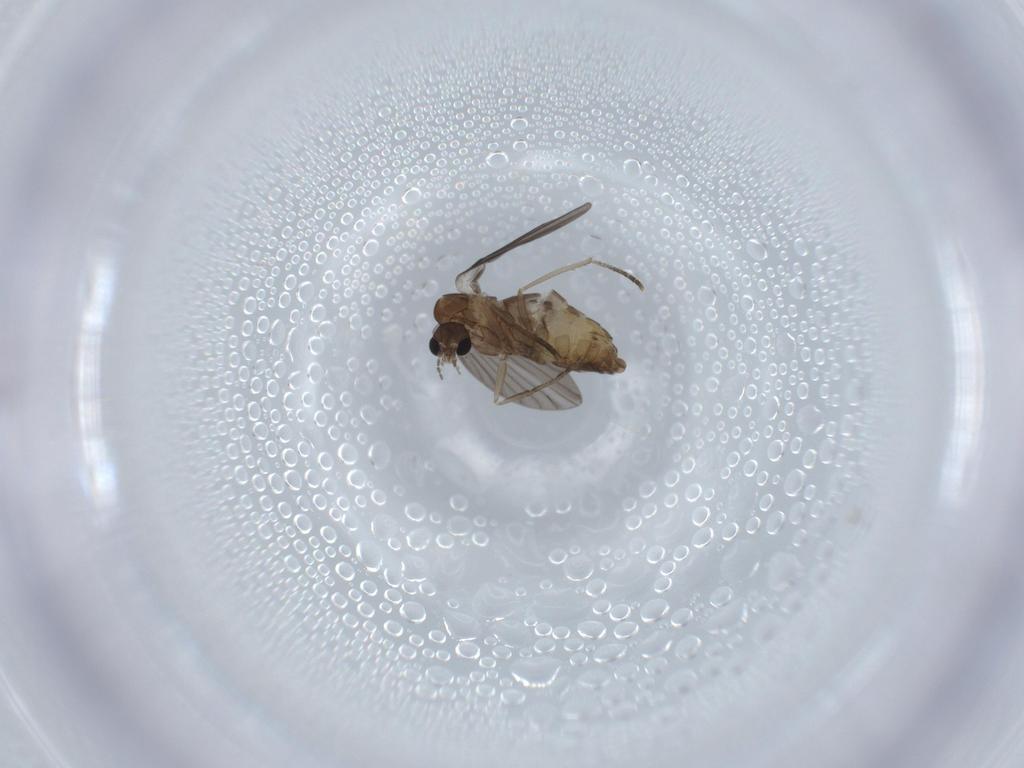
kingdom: Animalia
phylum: Arthropoda
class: Insecta
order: Diptera
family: Psychodidae
